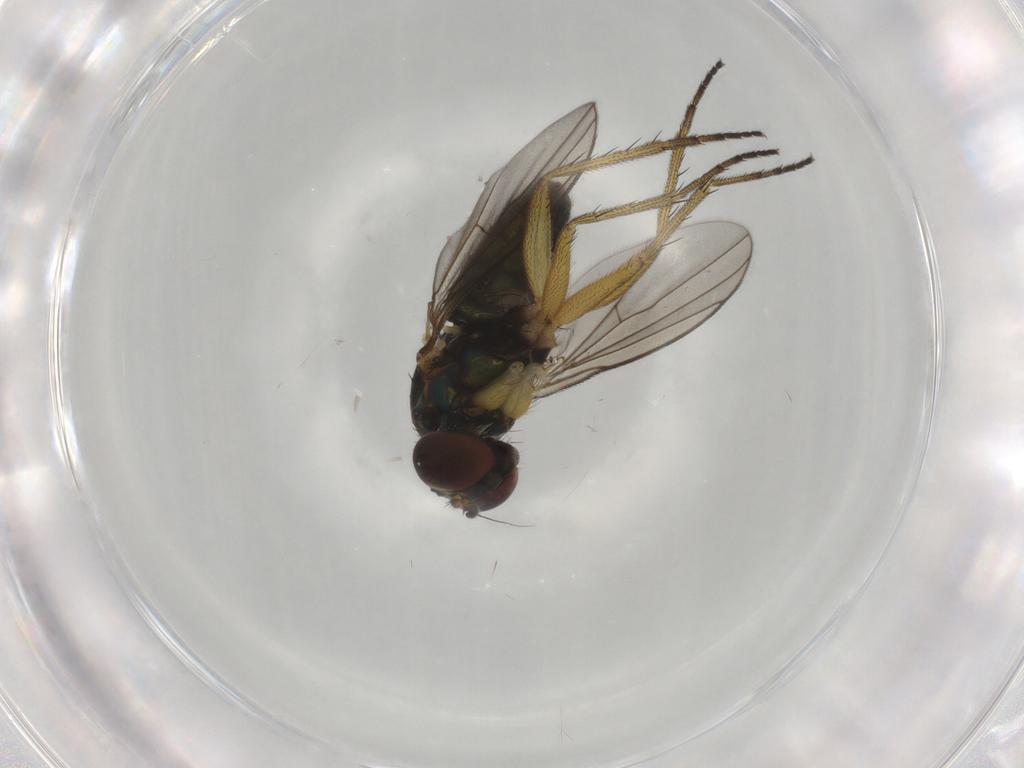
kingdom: Animalia
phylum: Arthropoda
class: Insecta
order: Diptera
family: Dolichopodidae
